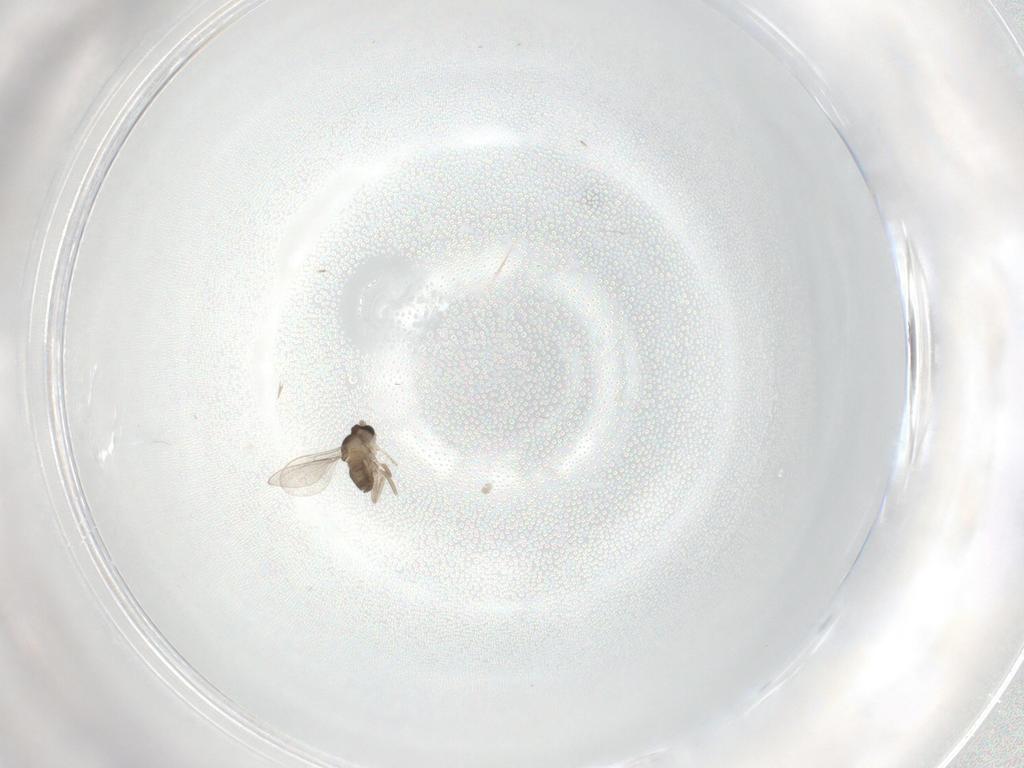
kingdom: Animalia
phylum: Arthropoda
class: Insecta
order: Diptera
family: Cecidomyiidae
